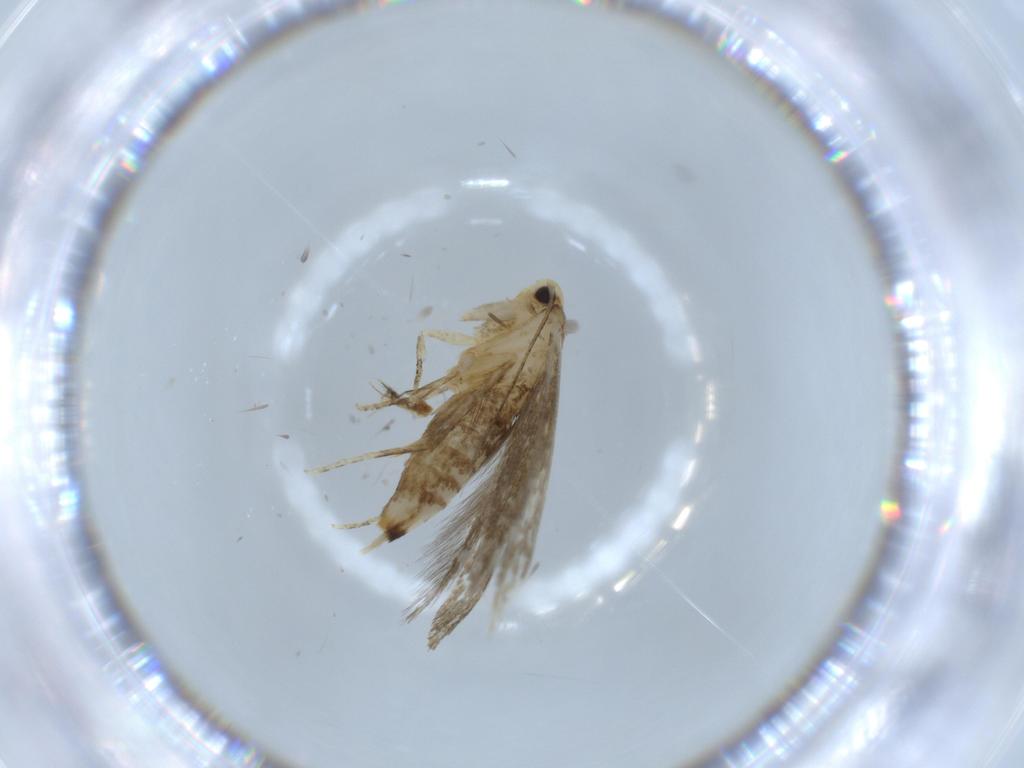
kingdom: Animalia
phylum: Arthropoda
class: Insecta
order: Lepidoptera
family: Tineidae
